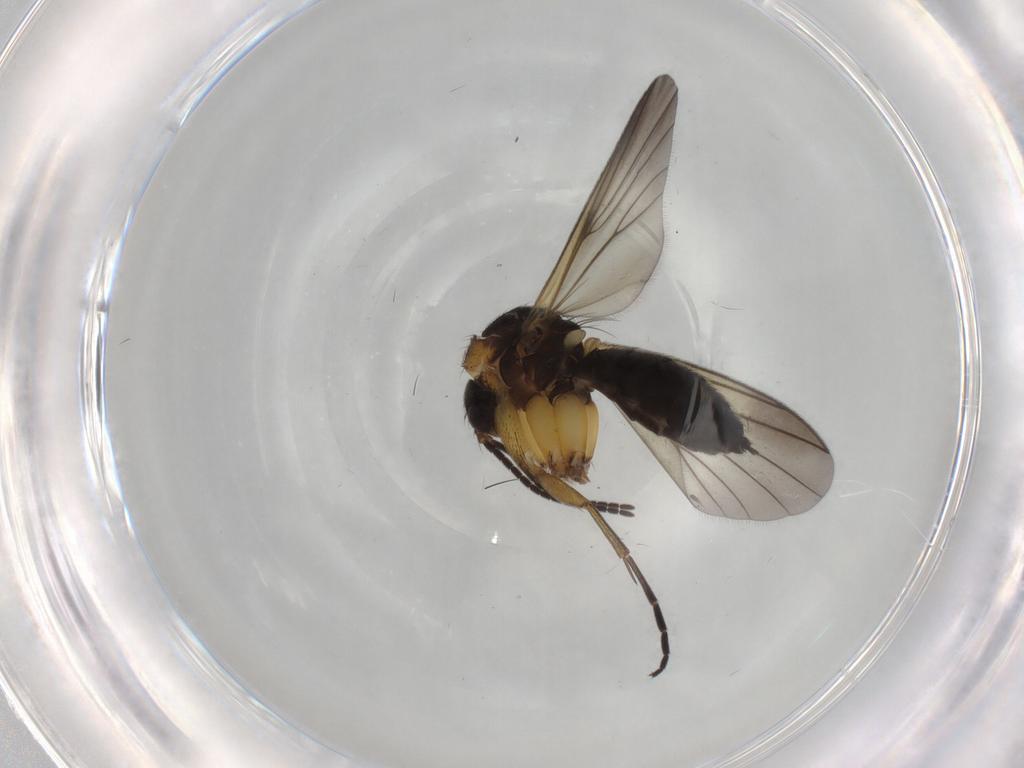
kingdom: Animalia
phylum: Arthropoda
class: Insecta
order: Diptera
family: Mycetophilidae
